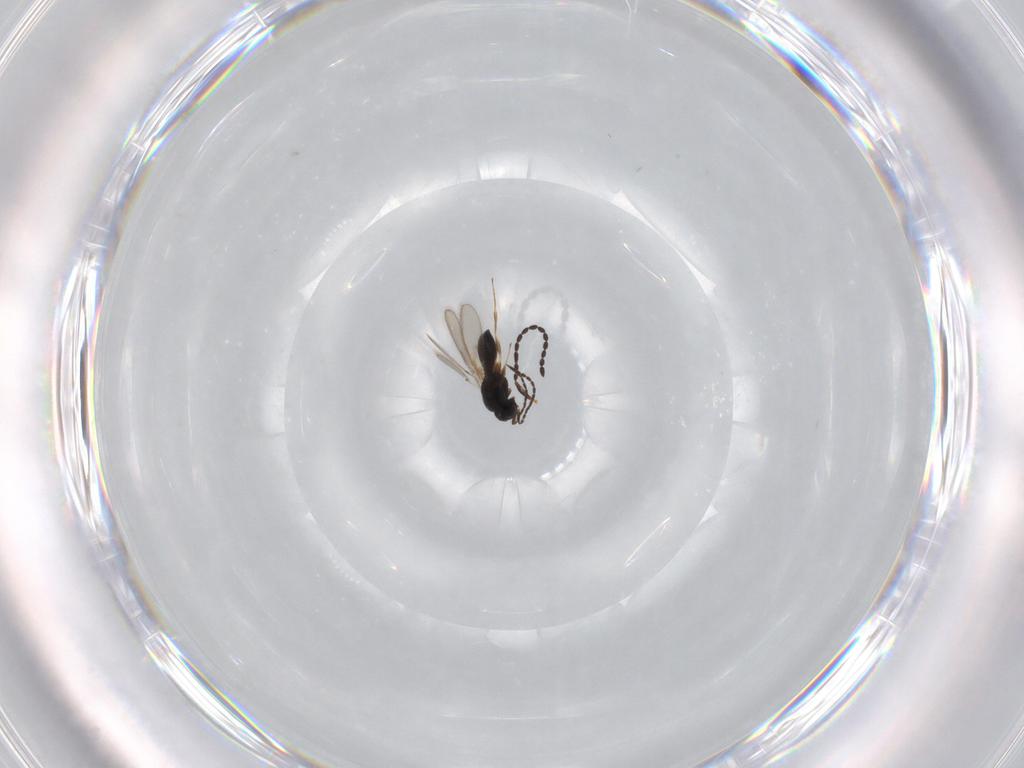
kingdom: Animalia
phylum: Arthropoda
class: Insecta
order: Hymenoptera
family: Scelionidae
